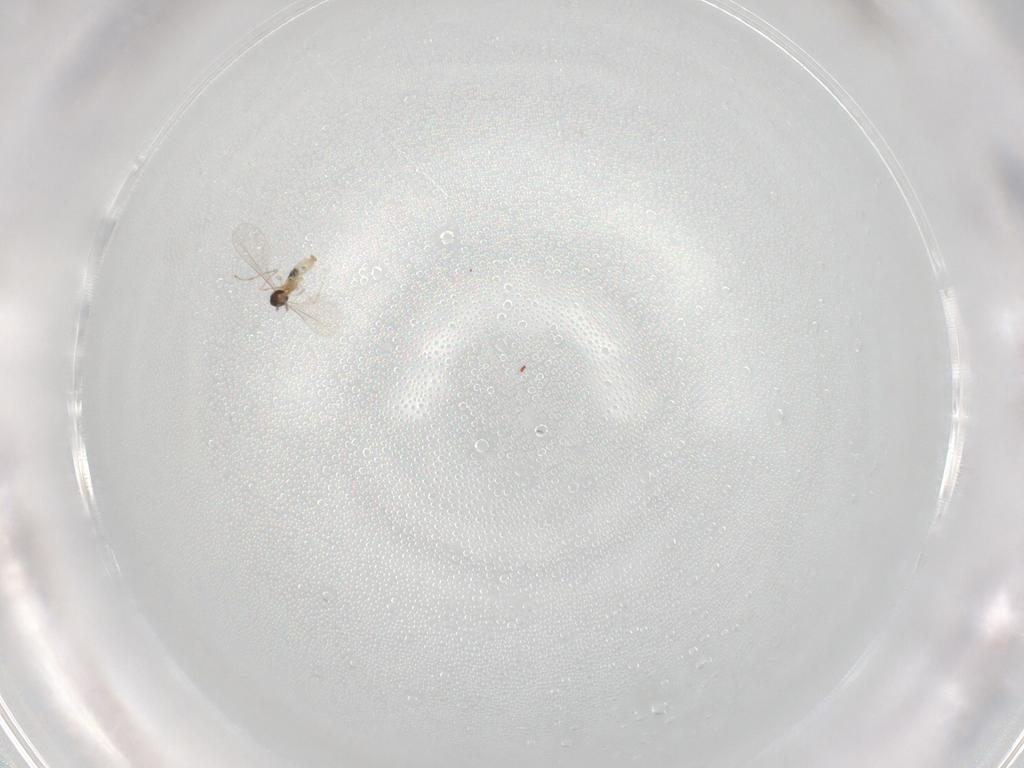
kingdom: Animalia
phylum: Arthropoda
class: Insecta
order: Diptera
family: Cecidomyiidae
